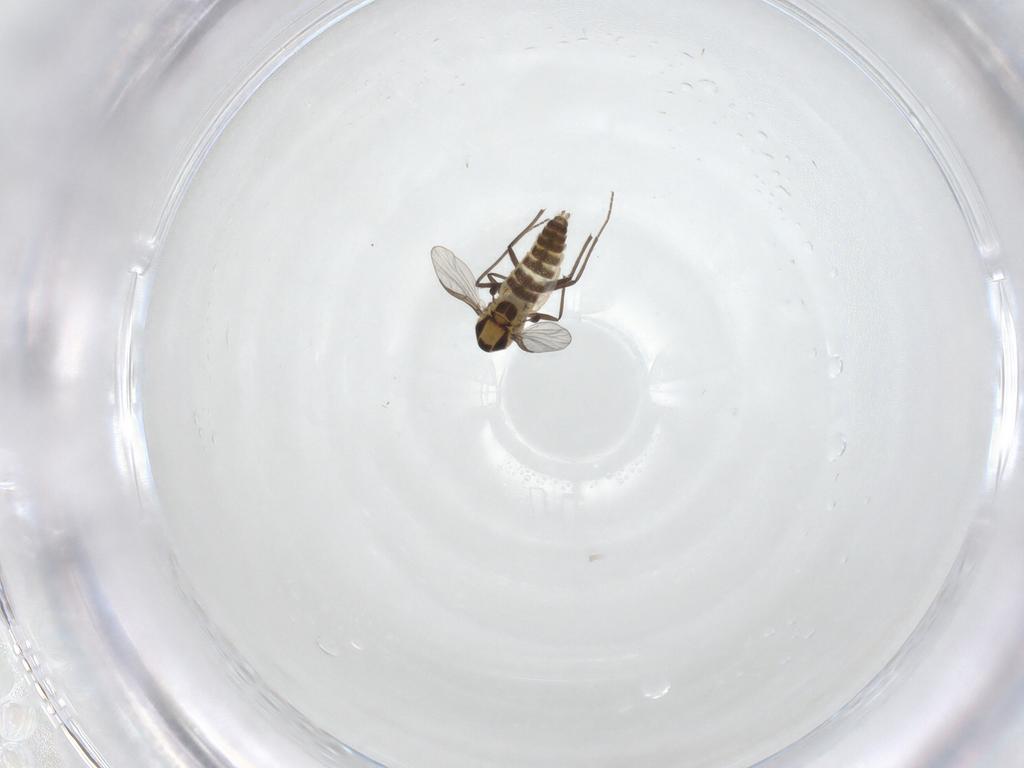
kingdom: Animalia
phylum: Arthropoda
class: Insecta
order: Diptera
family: Chironomidae
